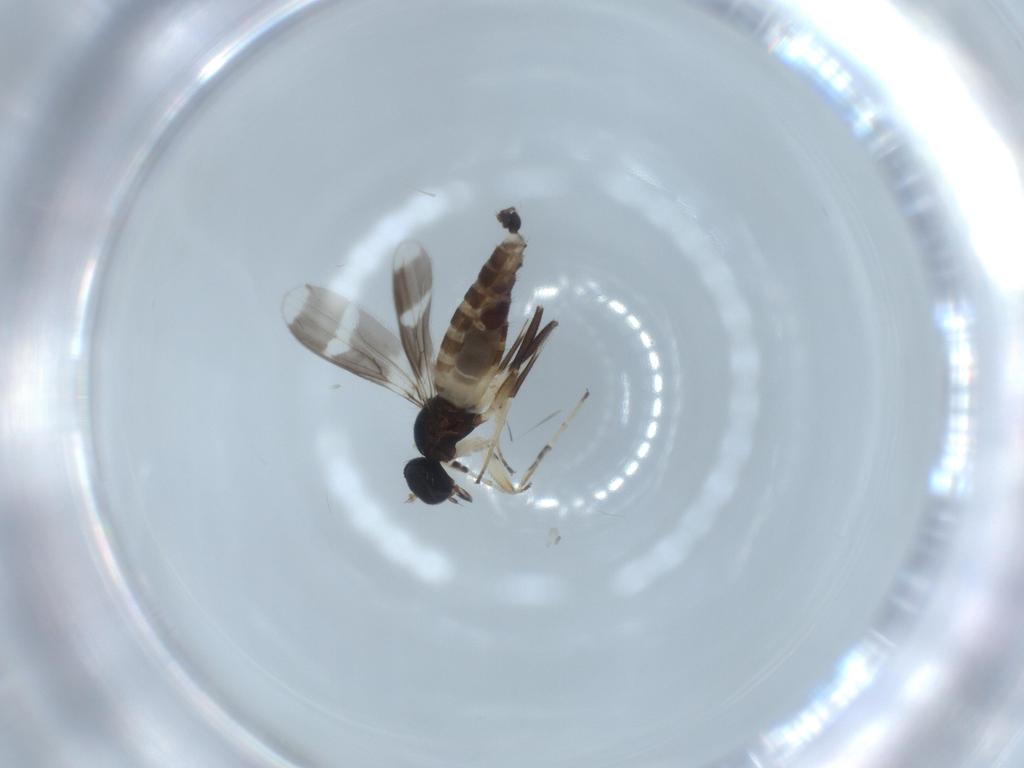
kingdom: Animalia
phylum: Arthropoda
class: Insecta
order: Diptera
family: Hybotidae
